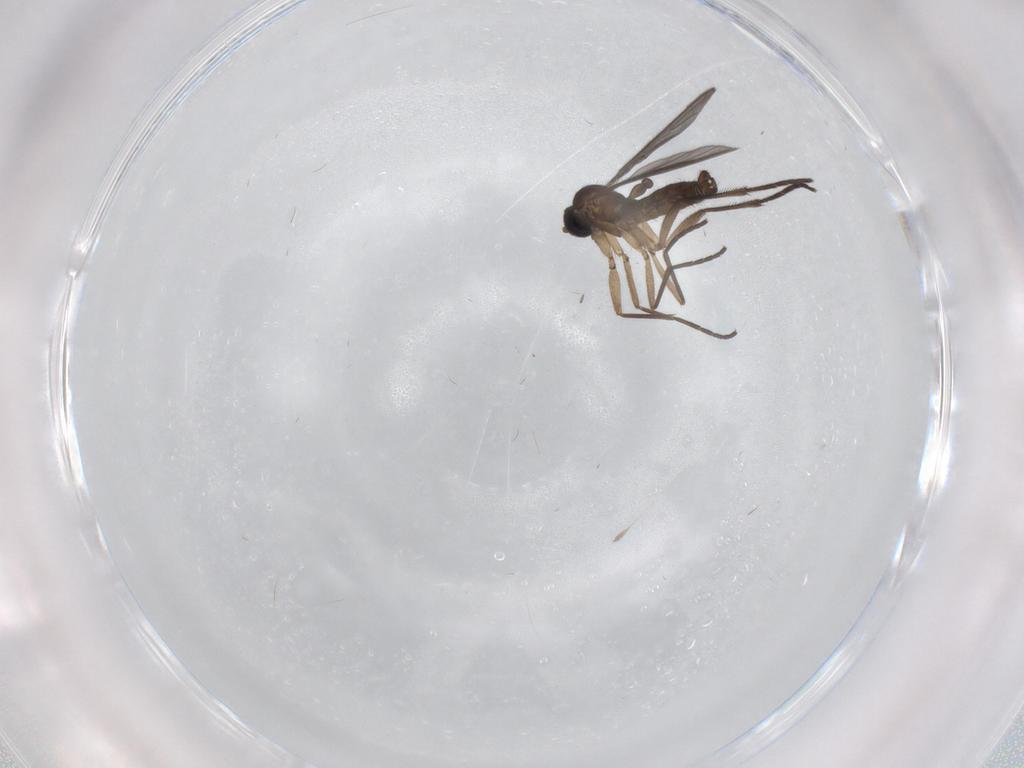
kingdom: Animalia
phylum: Arthropoda
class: Insecta
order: Diptera
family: Sciaridae
